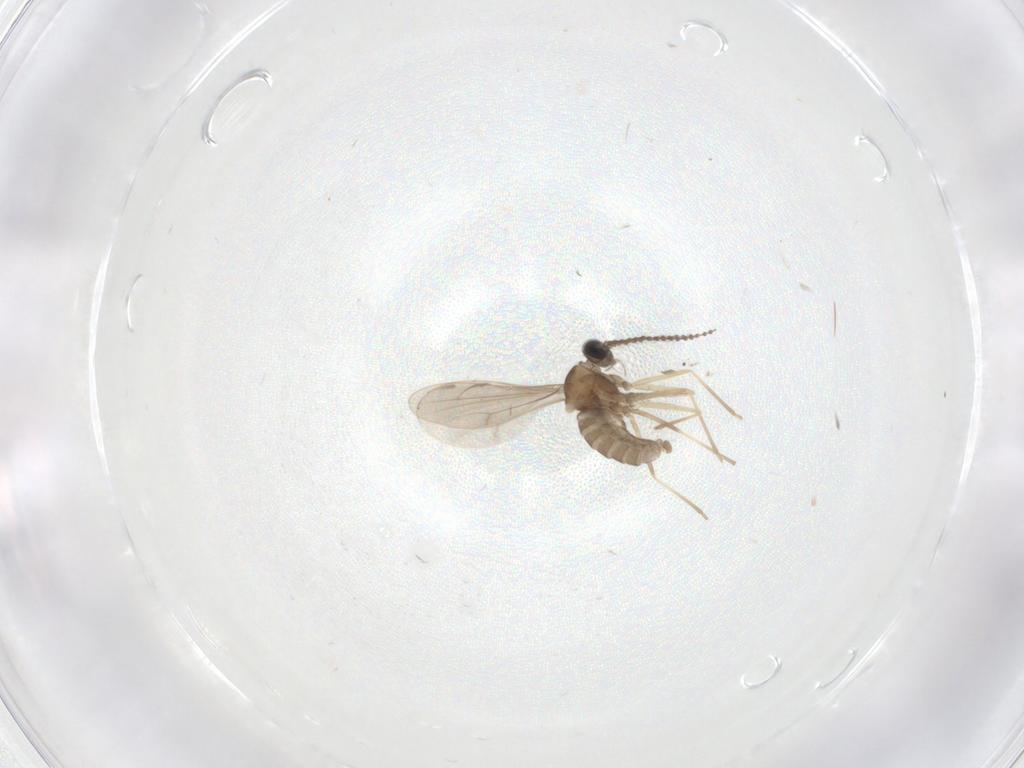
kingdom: Animalia
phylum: Arthropoda
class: Insecta
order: Diptera
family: Cecidomyiidae
